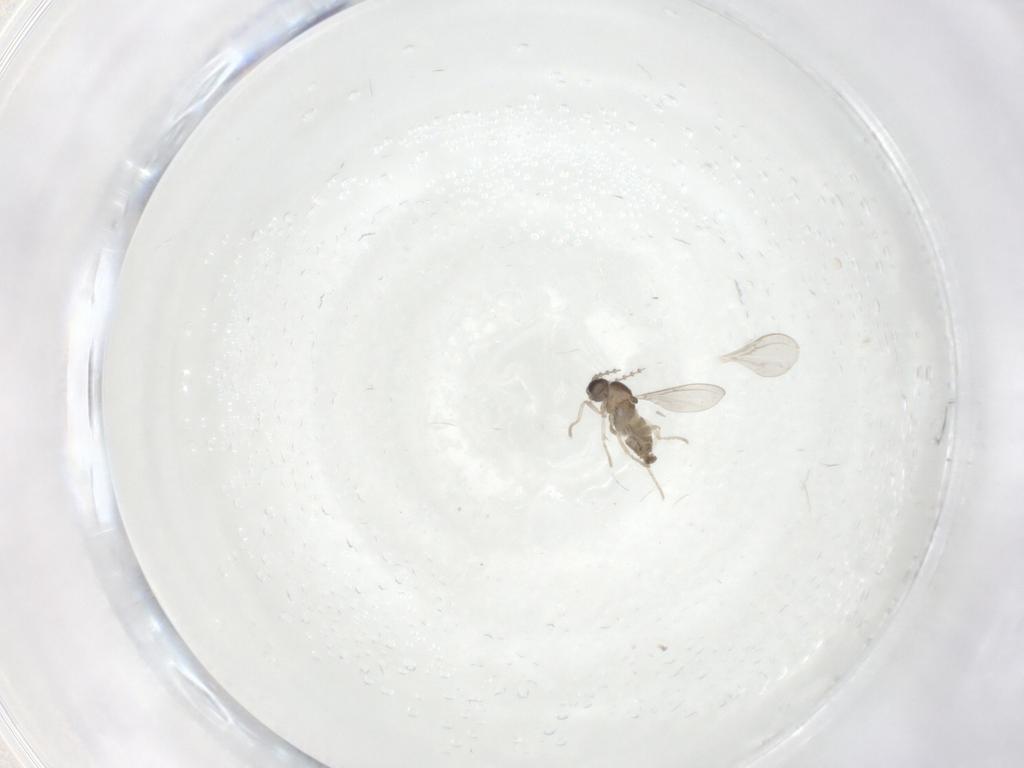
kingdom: Animalia
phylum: Arthropoda
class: Insecta
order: Diptera
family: Cecidomyiidae
